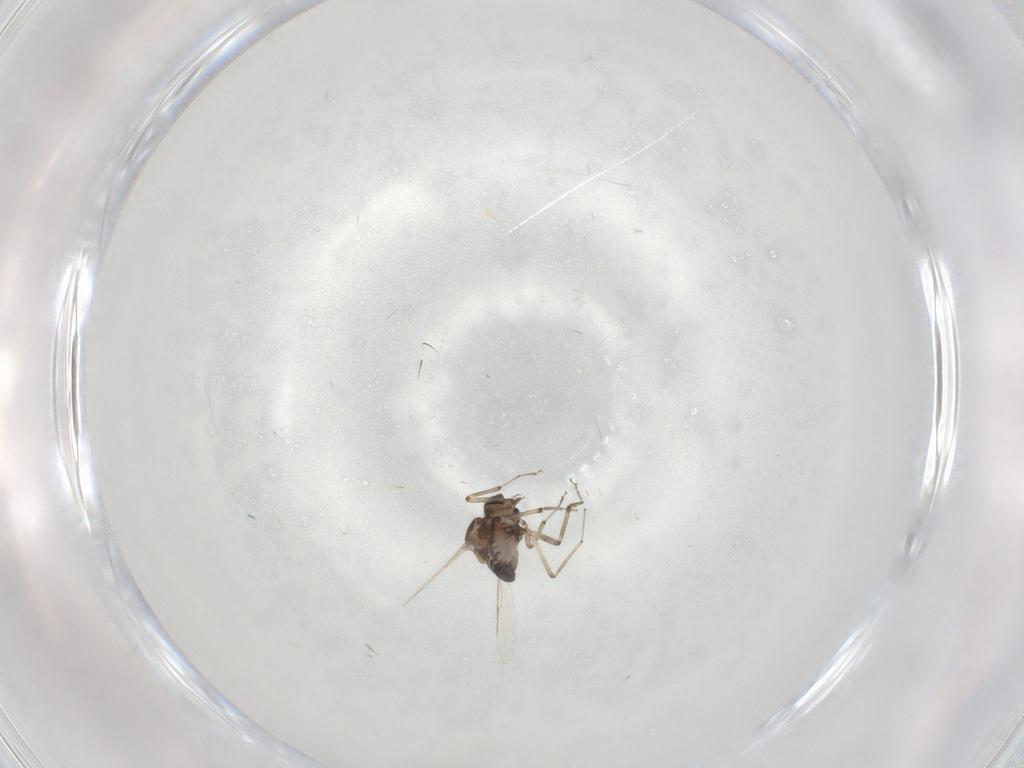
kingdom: Animalia
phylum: Arthropoda
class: Insecta
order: Diptera
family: Ceratopogonidae
